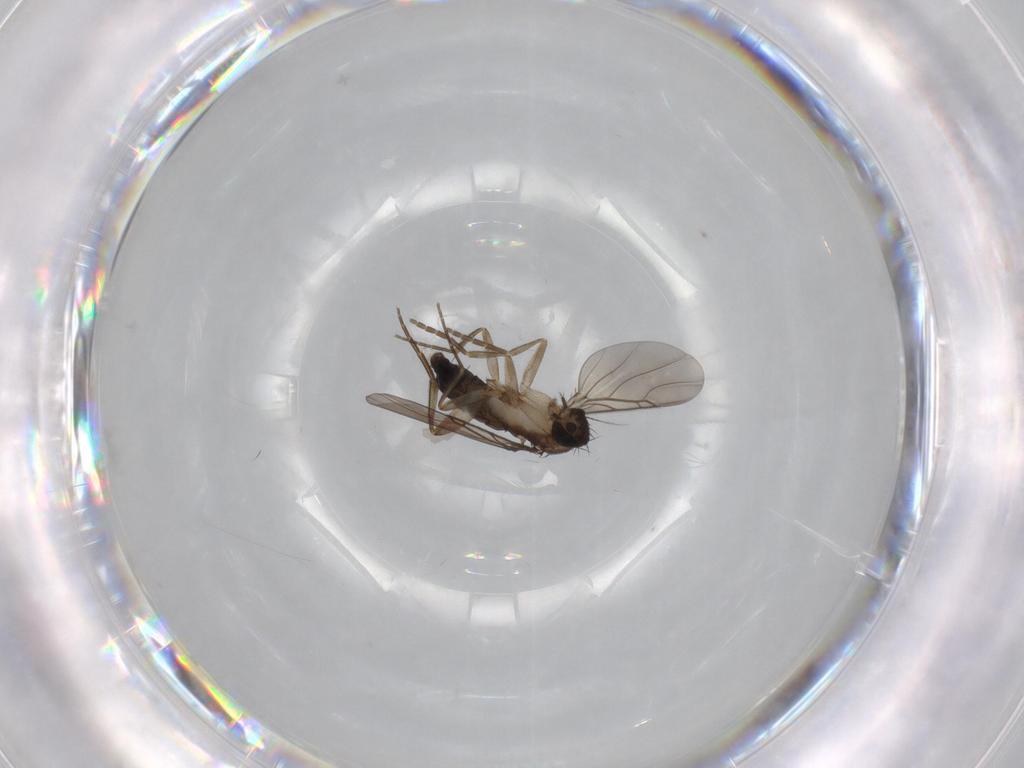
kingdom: Animalia
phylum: Arthropoda
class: Insecta
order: Diptera
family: Phoridae
